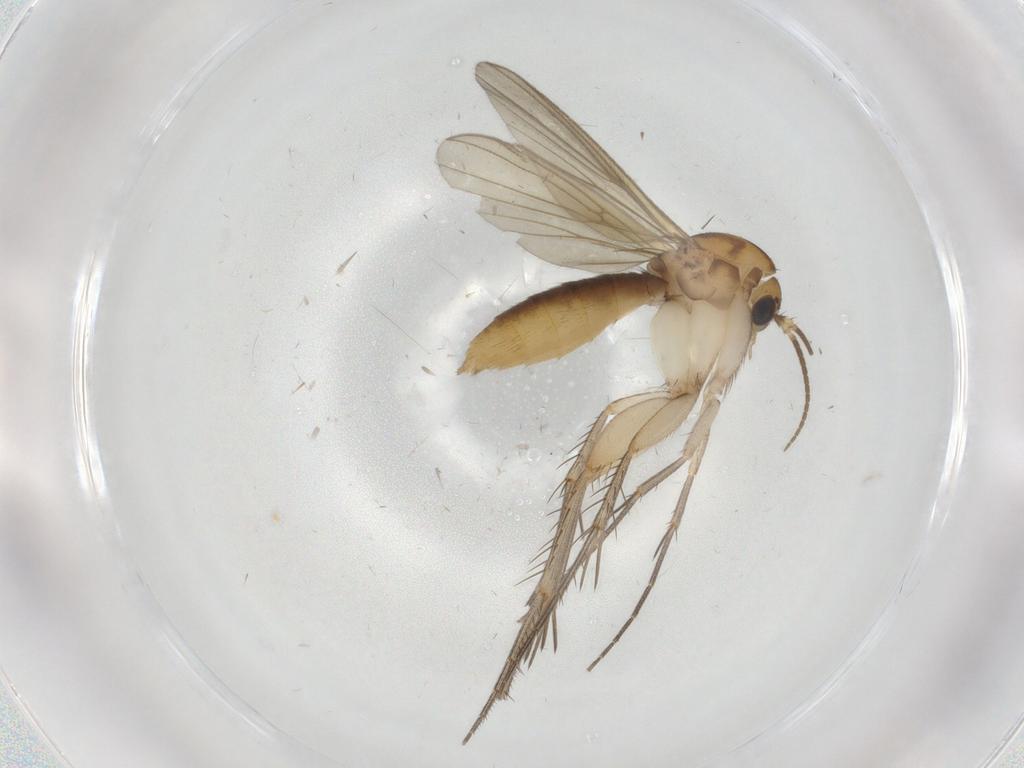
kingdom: Animalia
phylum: Arthropoda
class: Insecta
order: Diptera
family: Mycetophilidae
